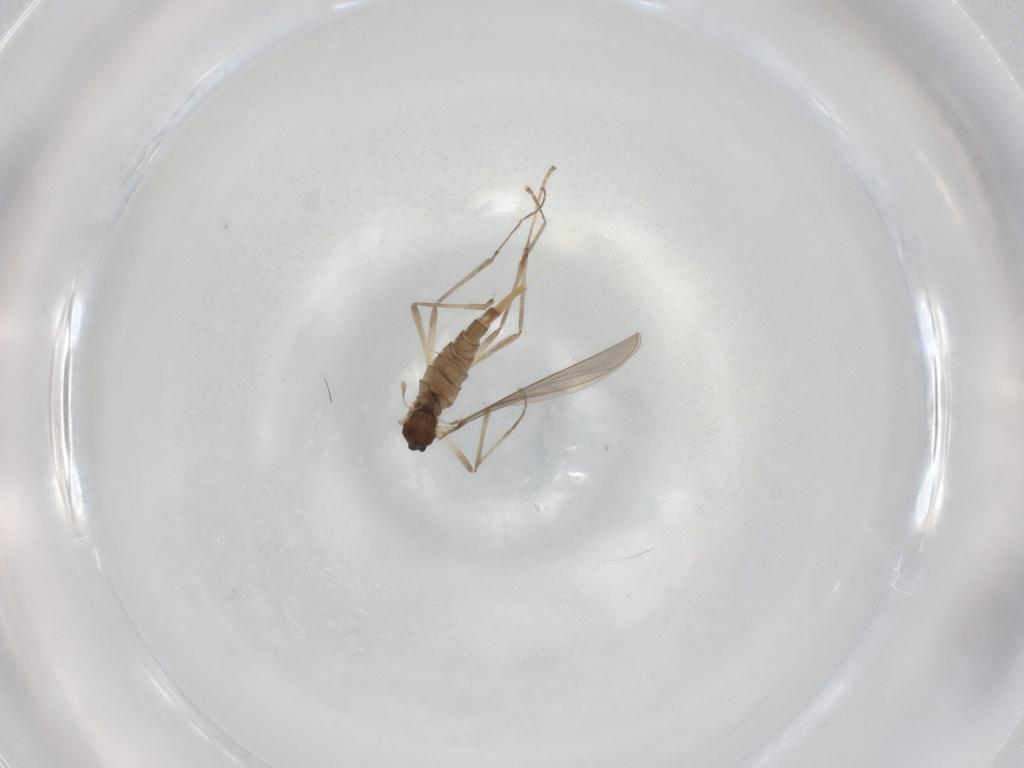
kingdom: Animalia
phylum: Arthropoda
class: Insecta
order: Diptera
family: Cecidomyiidae
